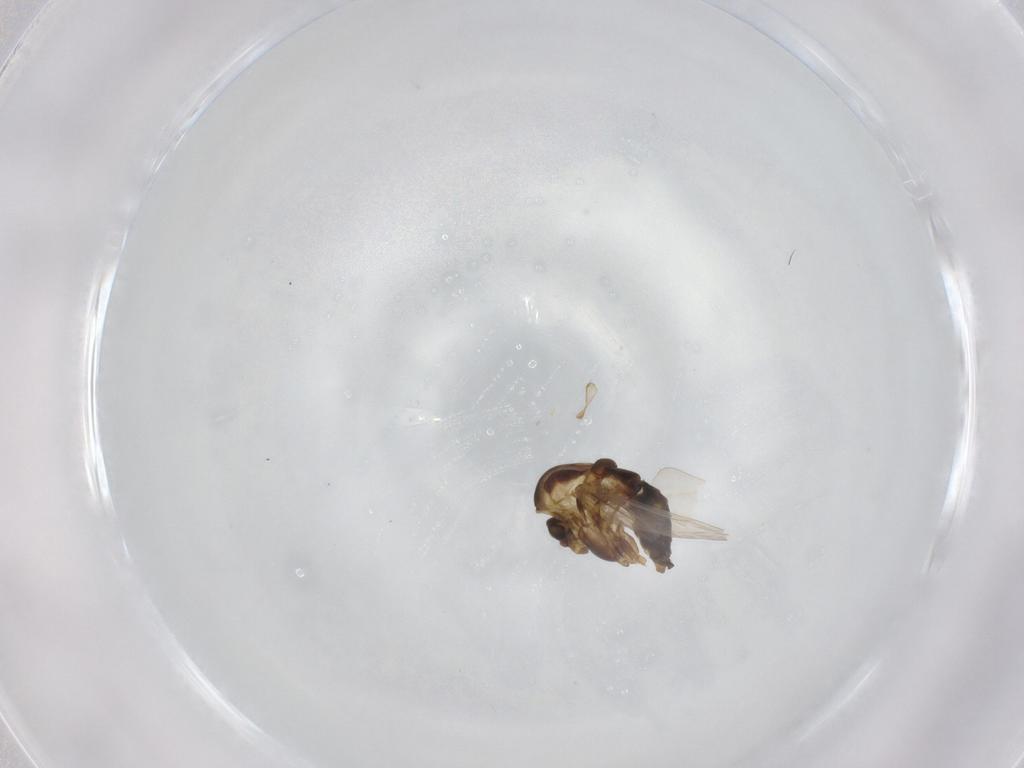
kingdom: Animalia
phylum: Arthropoda
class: Insecta
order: Diptera
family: Chironomidae
